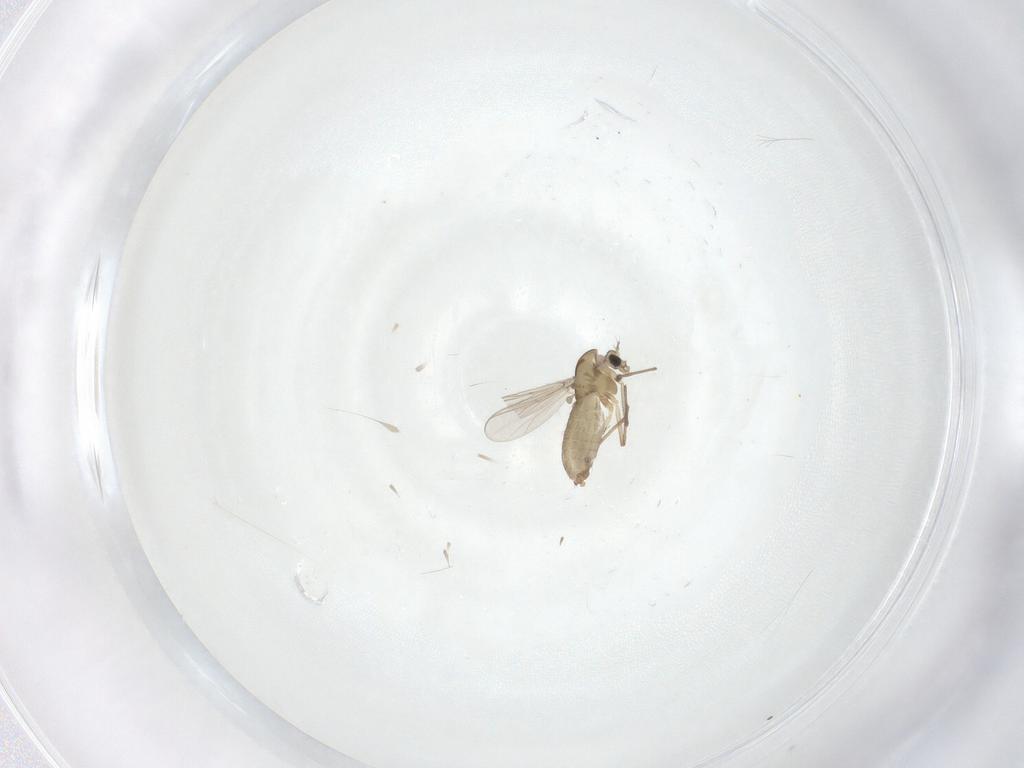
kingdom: Animalia
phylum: Arthropoda
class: Insecta
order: Diptera
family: Chironomidae
